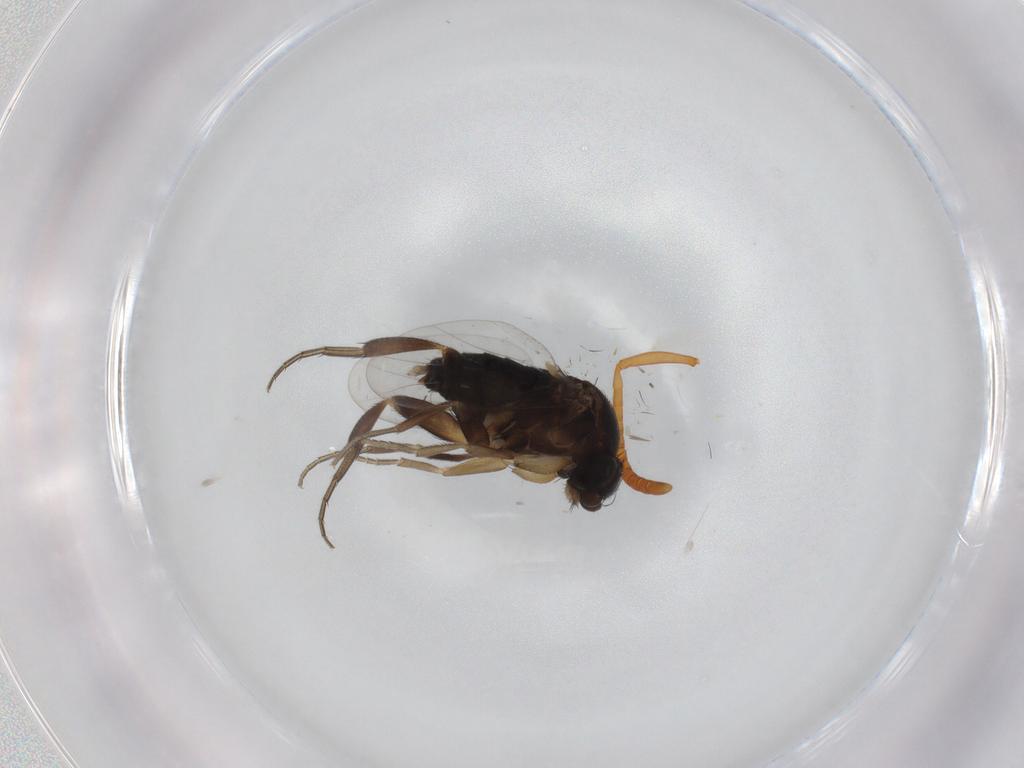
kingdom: Animalia
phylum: Arthropoda
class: Insecta
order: Diptera
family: Phoridae
